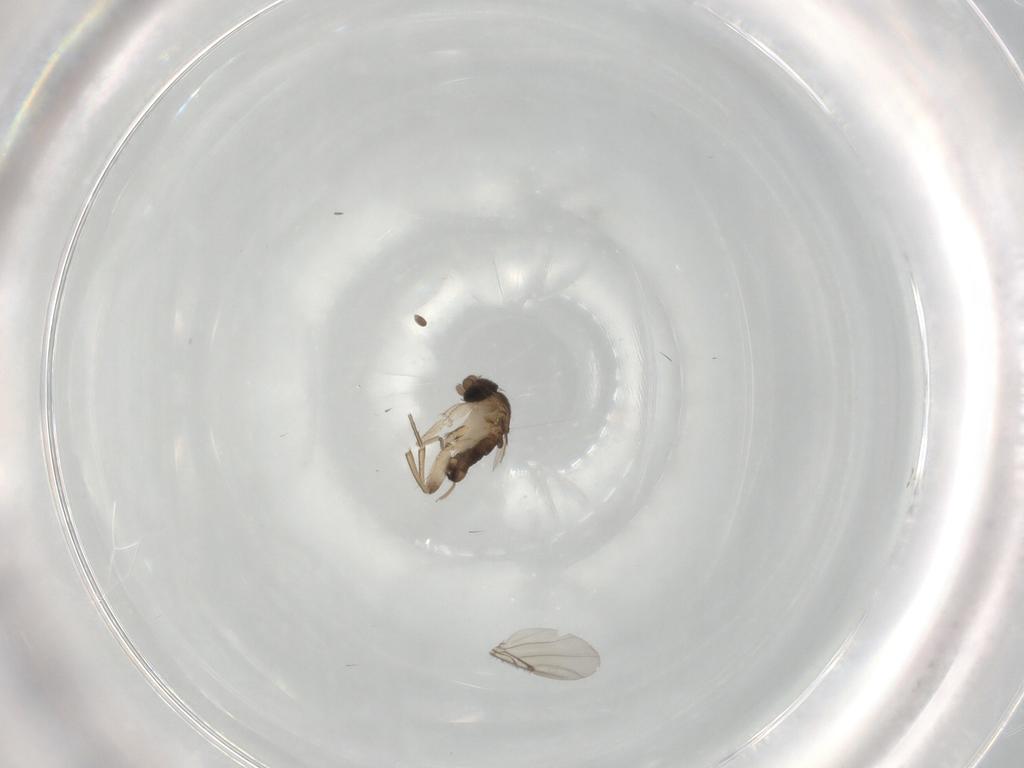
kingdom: Animalia
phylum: Arthropoda
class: Insecta
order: Diptera
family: Phoridae
